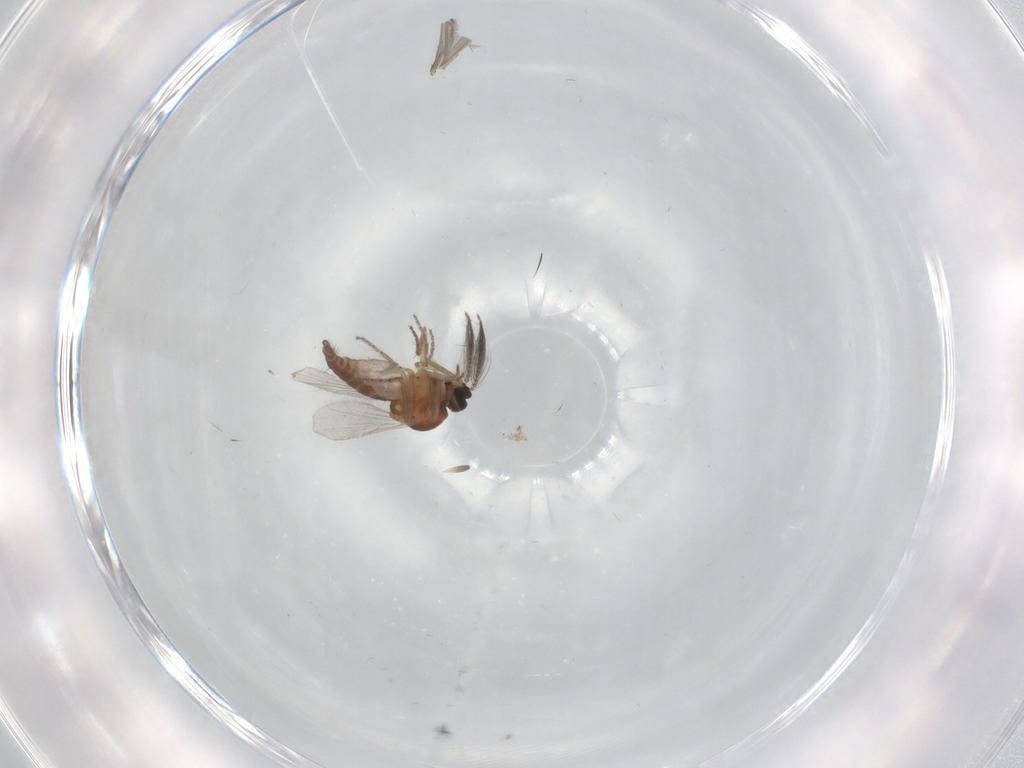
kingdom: Animalia
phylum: Arthropoda
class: Insecta
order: Diptera
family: Ceratopogonidae
